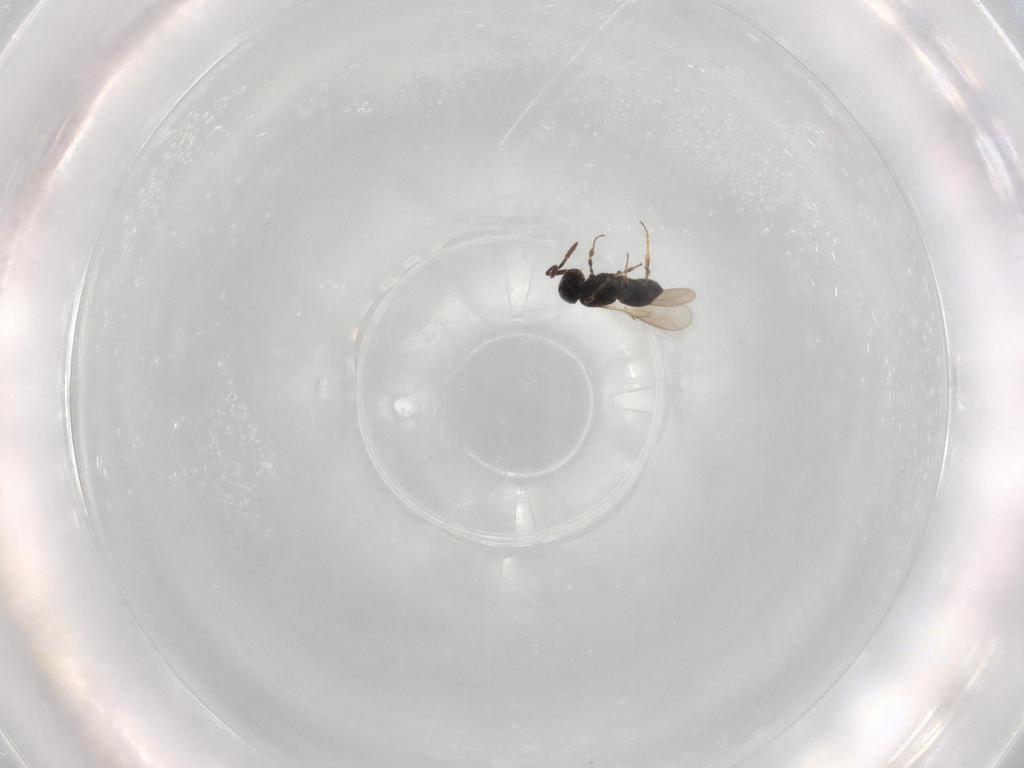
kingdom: Animalia
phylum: Arthropoda
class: Insecta
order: Hymenoptera
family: Scelionidae
